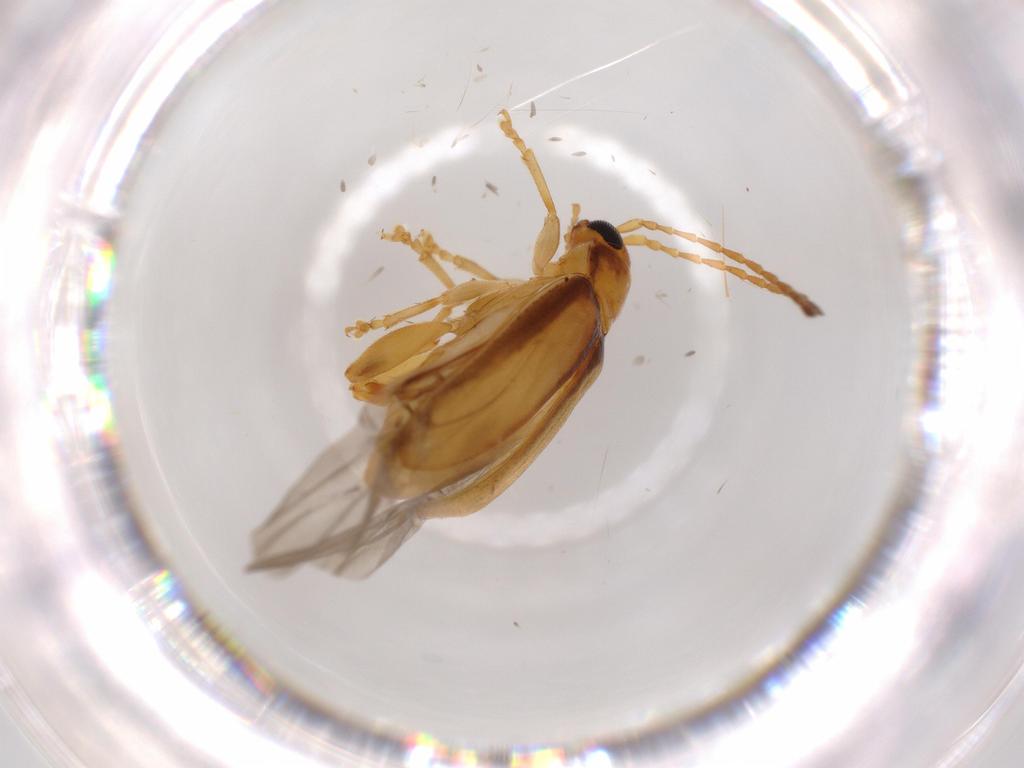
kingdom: Animalia
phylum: Arthropoda
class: Insecta
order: Coleoptera
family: Chrysomelidae
